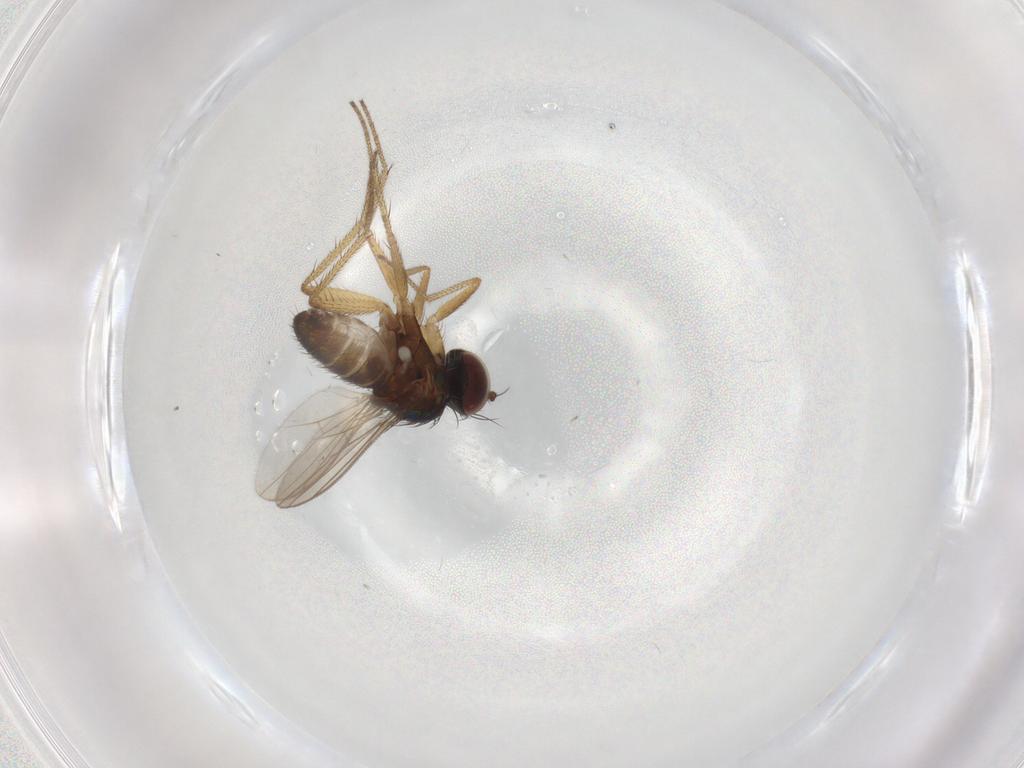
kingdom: Animalia
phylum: Arthropoda
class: Insecta
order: Diptera
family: Dolichopodidae
